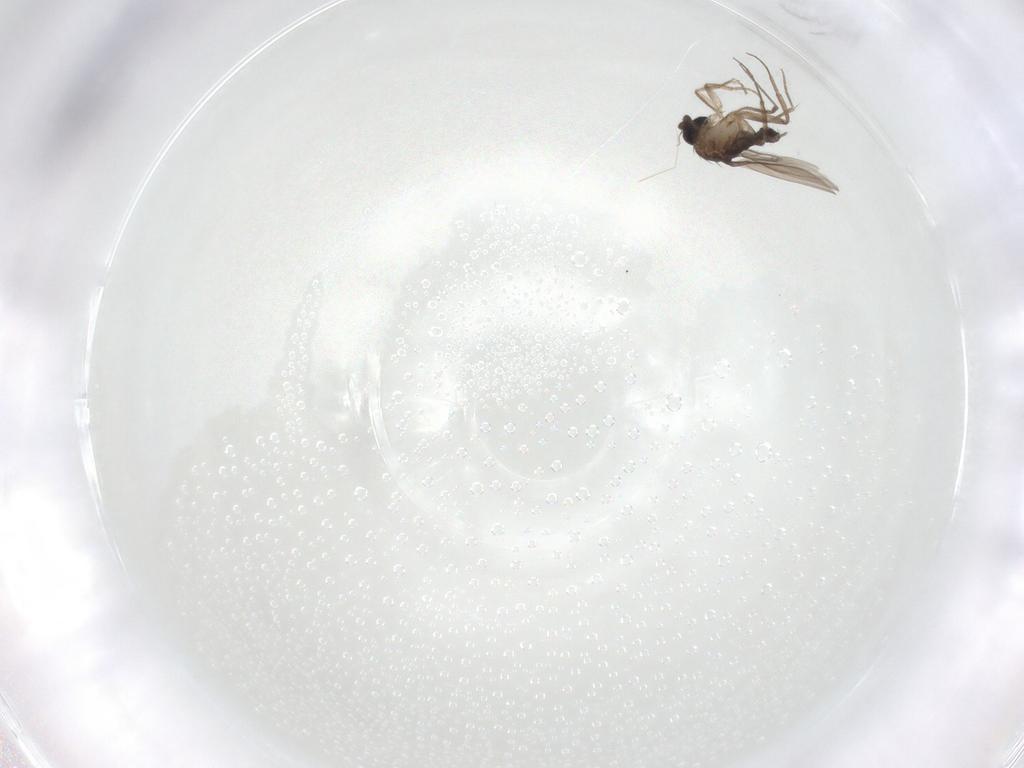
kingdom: Animalia
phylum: Arthropoda
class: Insecta
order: Diptera
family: Phoridae
